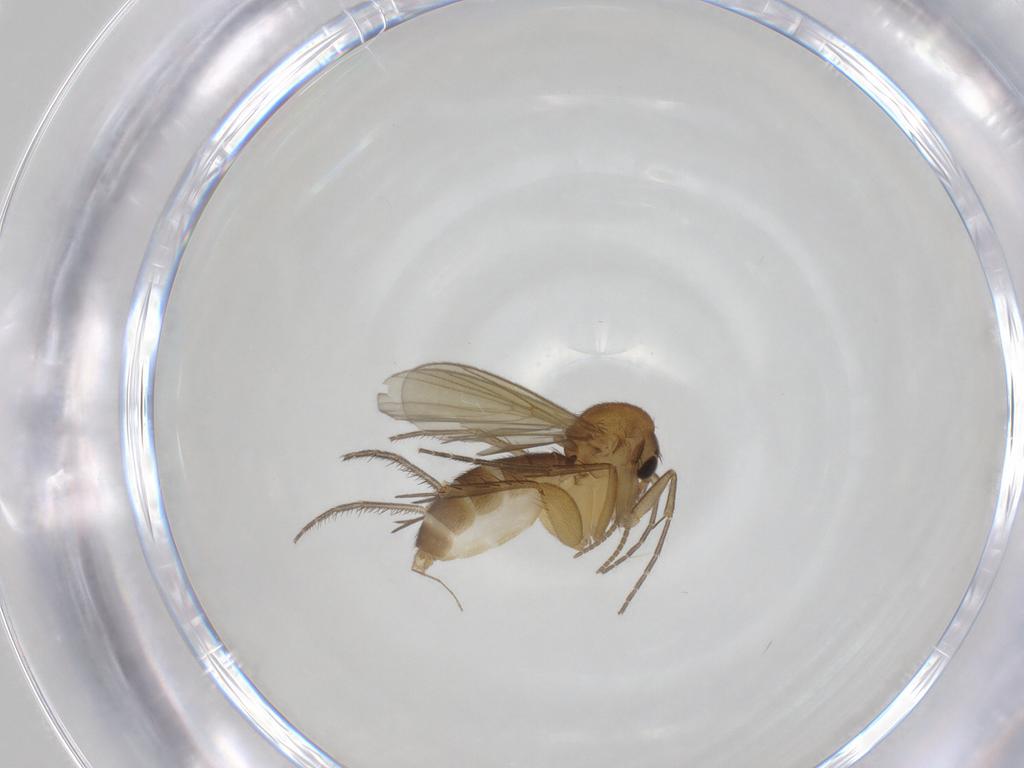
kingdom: Animalia
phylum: Arthropoda
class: Insecta
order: Diptera
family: Mycetophilidae
